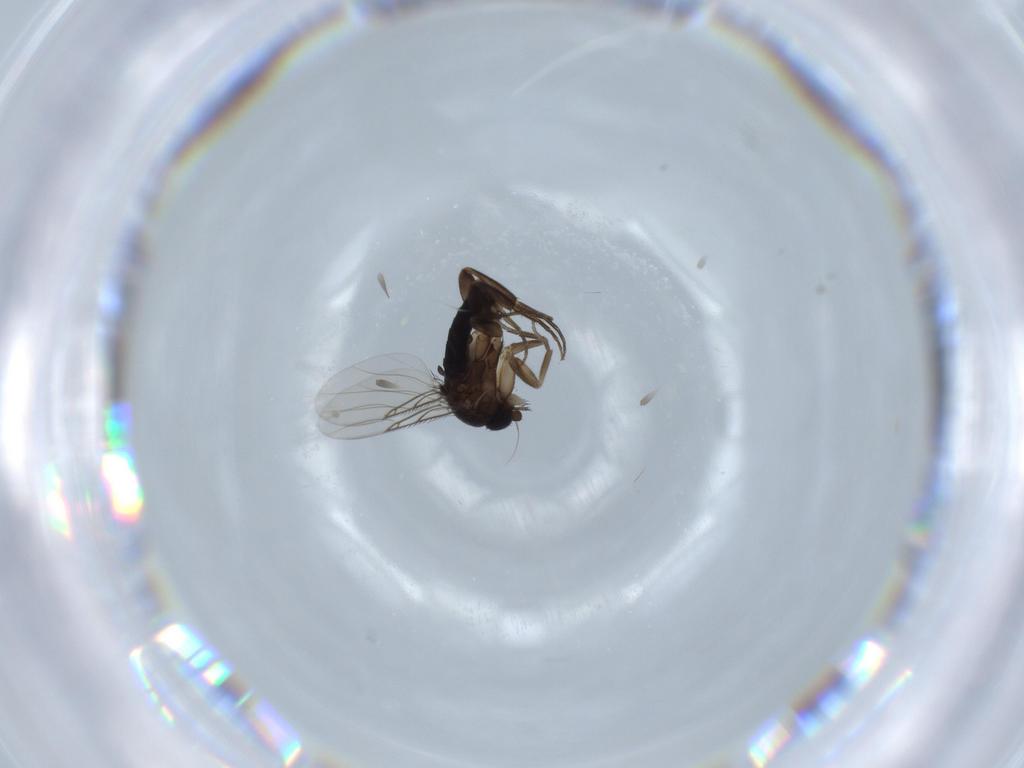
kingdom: Animalia
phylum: Arthropoda
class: Insecta
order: Diptera
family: Phoridae
